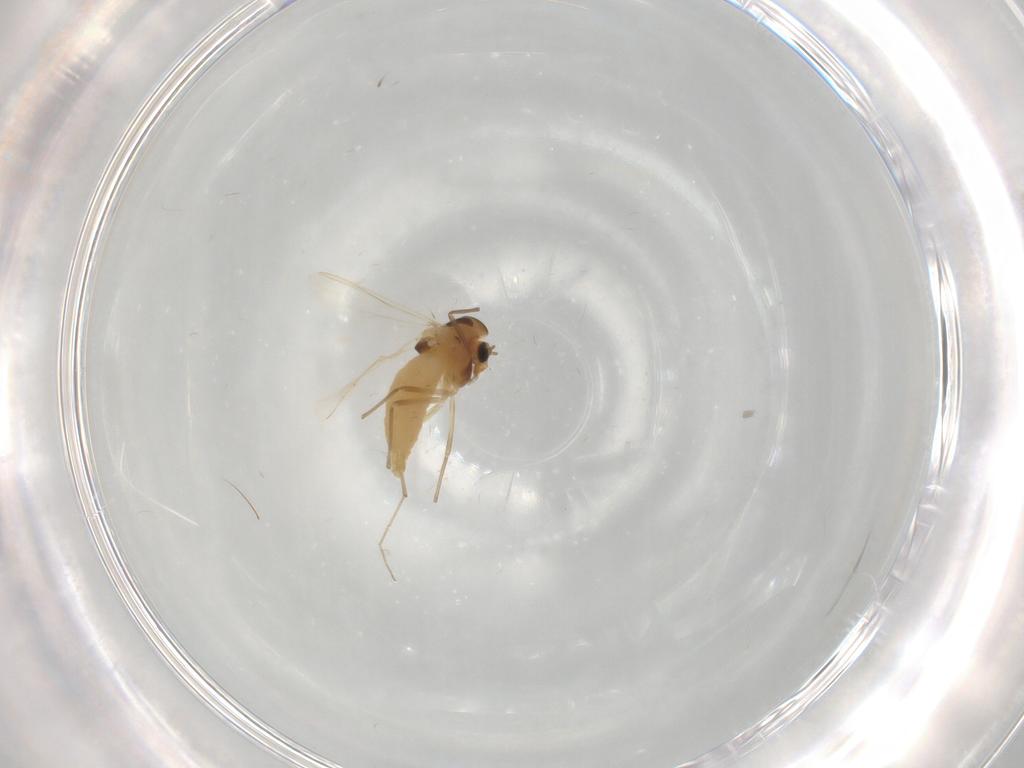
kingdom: Animalia
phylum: Arthropoda
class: Insecta
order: Diptera
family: Chironomidae
